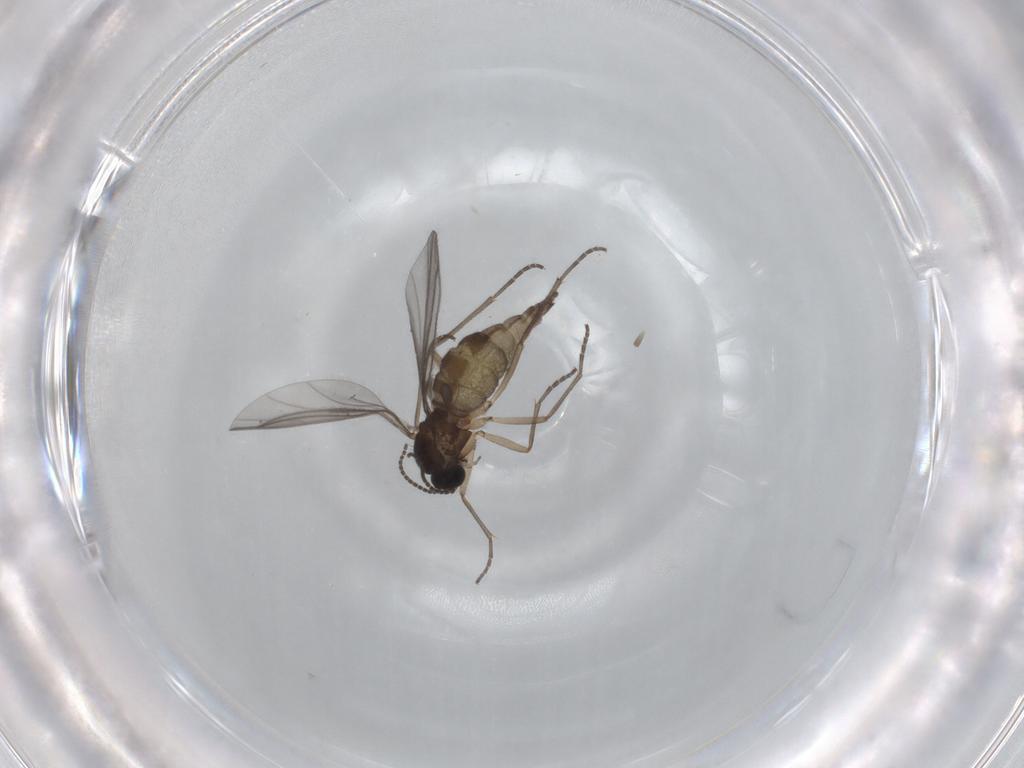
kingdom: Animalia
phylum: Arthropoda
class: Insecta
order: Diptera
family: Sciaridae
